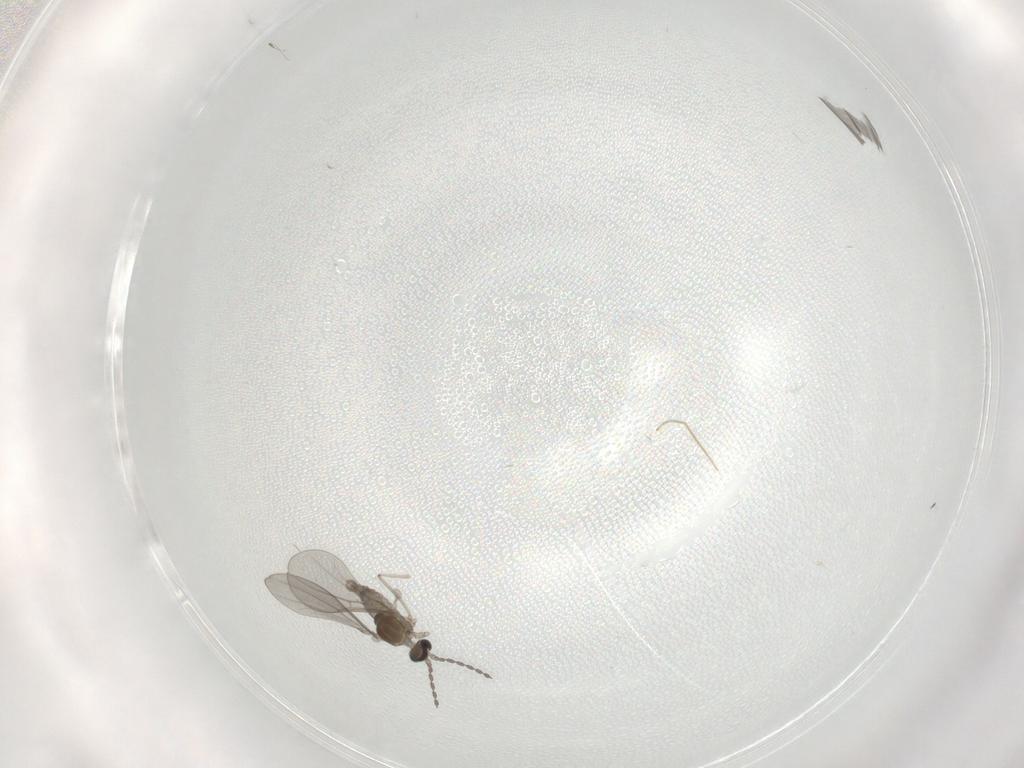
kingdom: Animalia
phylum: Arthropoda
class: Insecta
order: Diptera
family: Cecidomyiidae
